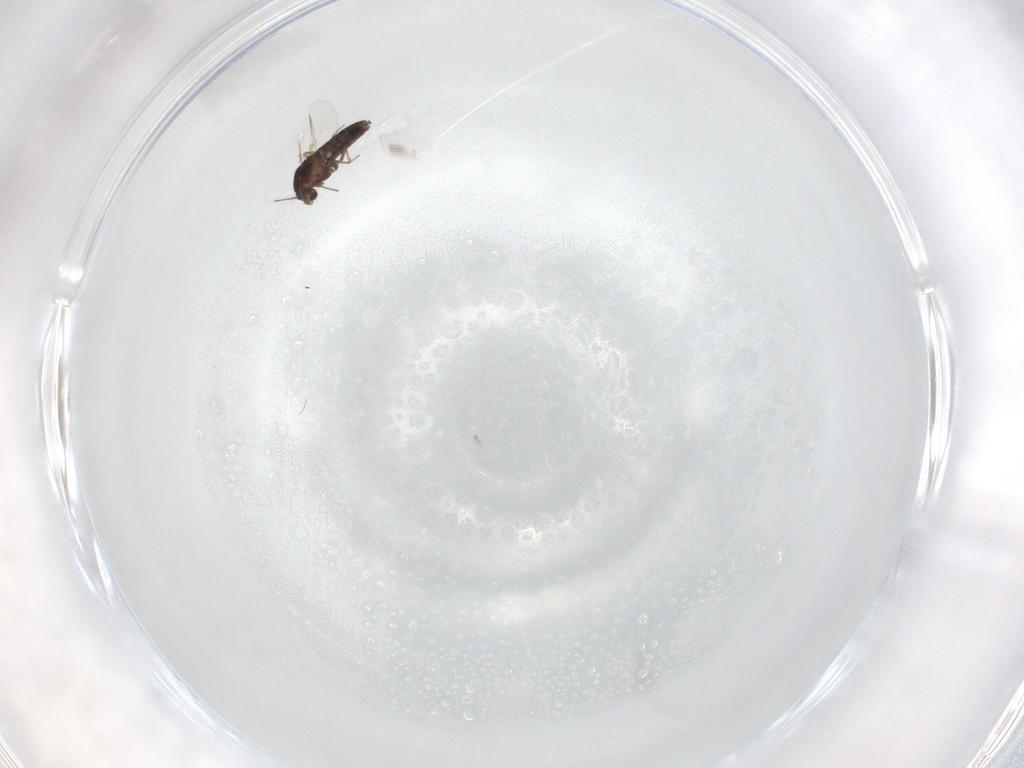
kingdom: Animalia
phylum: Arthropoda
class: Insecta
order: Diptera
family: Chironomidae
